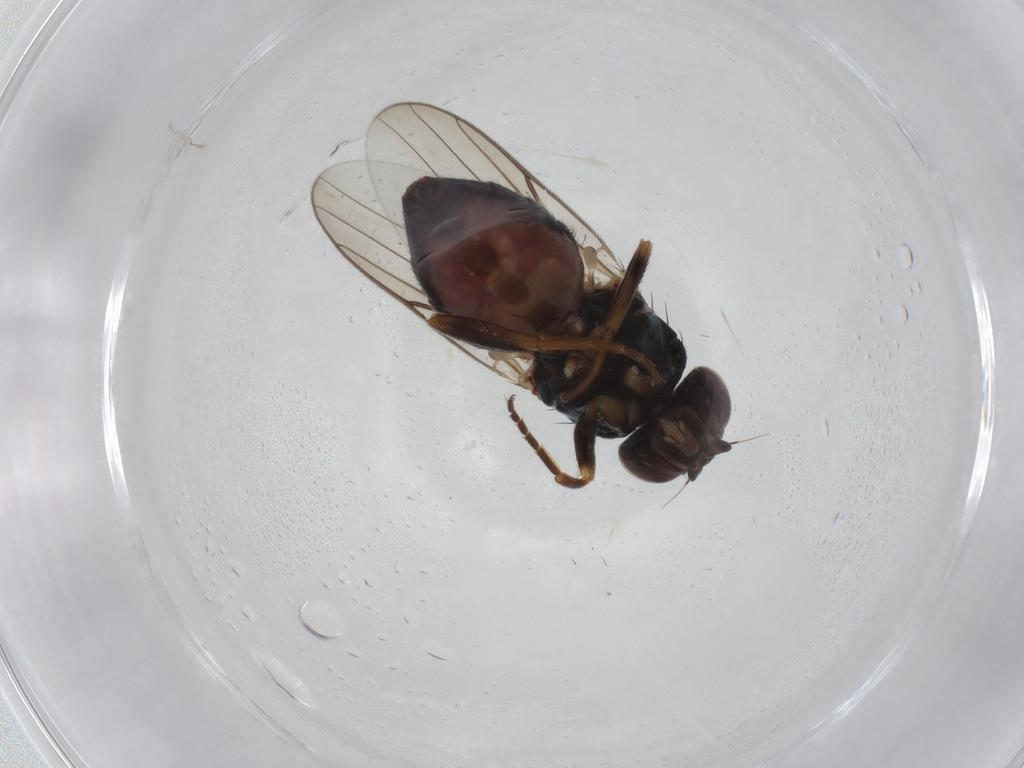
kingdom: Animalia
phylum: Arthropoda
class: Insecta
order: Diptera
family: Chloropidae
